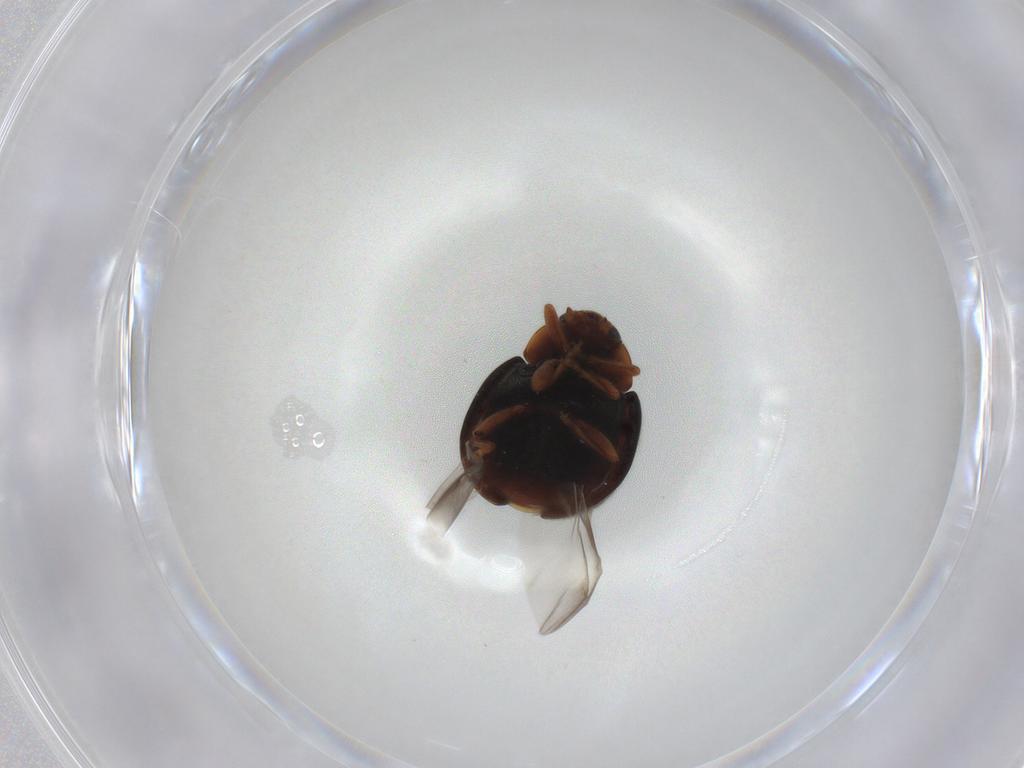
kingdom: Animalia
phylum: Arthropoda
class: Insecta
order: Coleoptera
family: Coccinellidae
